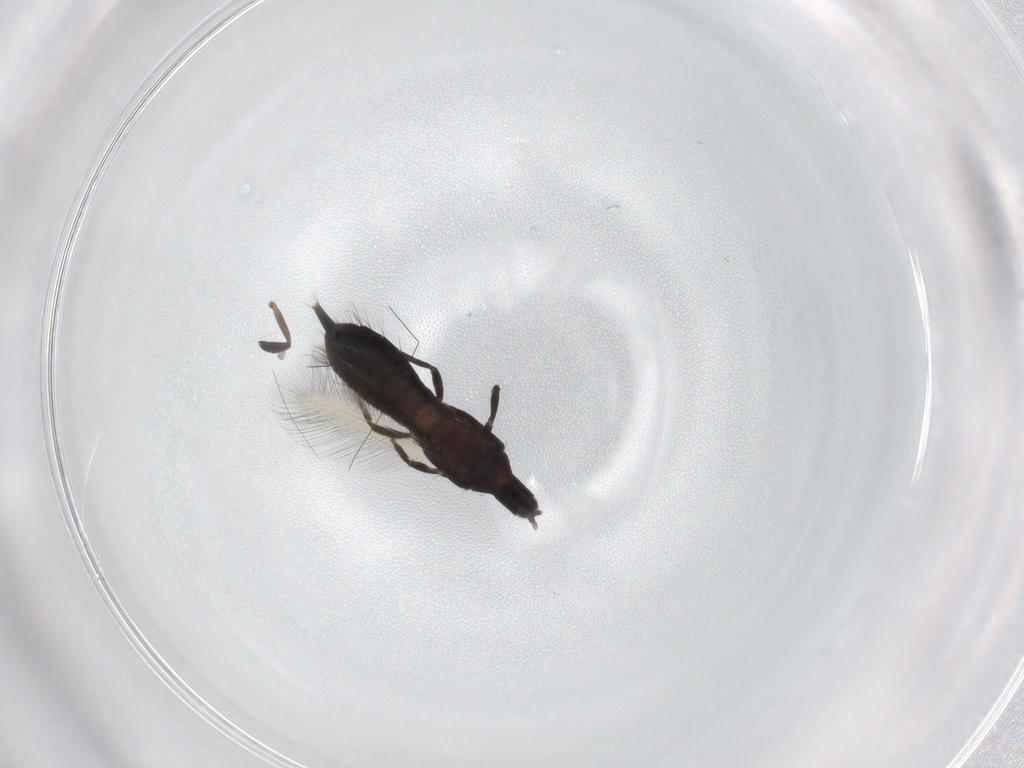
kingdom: Animalia
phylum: Arthropoda
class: Insecta
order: Thysanoptera
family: Phlaeothripidae
